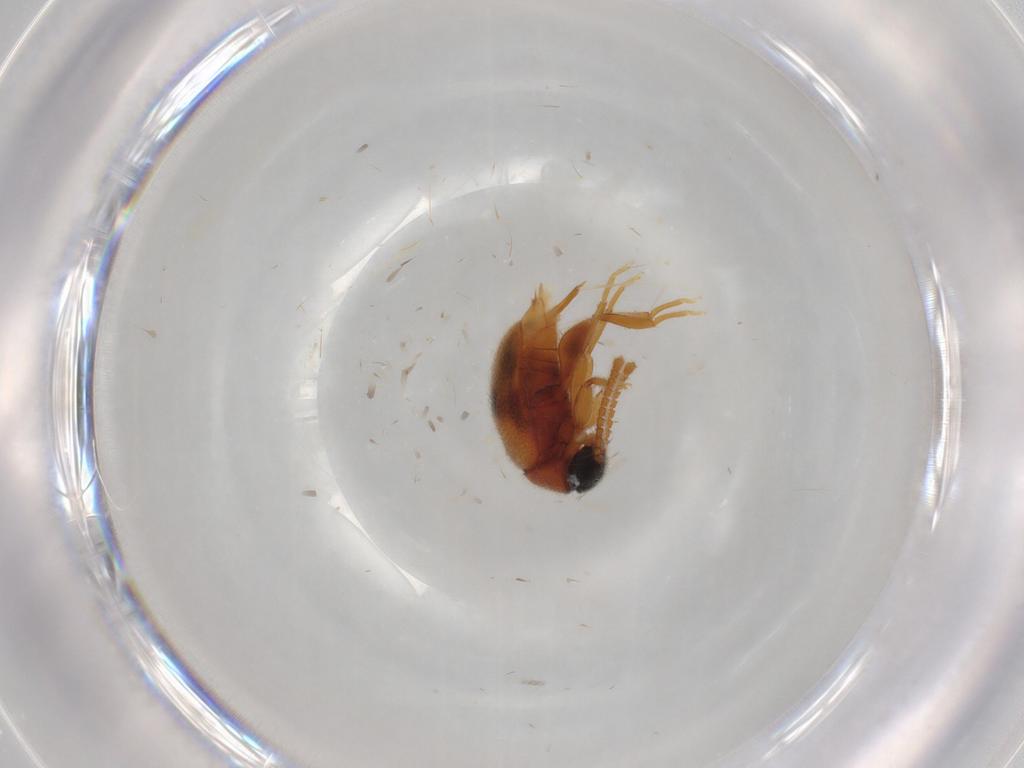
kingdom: Animalia
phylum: Arthropoda
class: Insecta
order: Coleoptera
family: Aderidae
